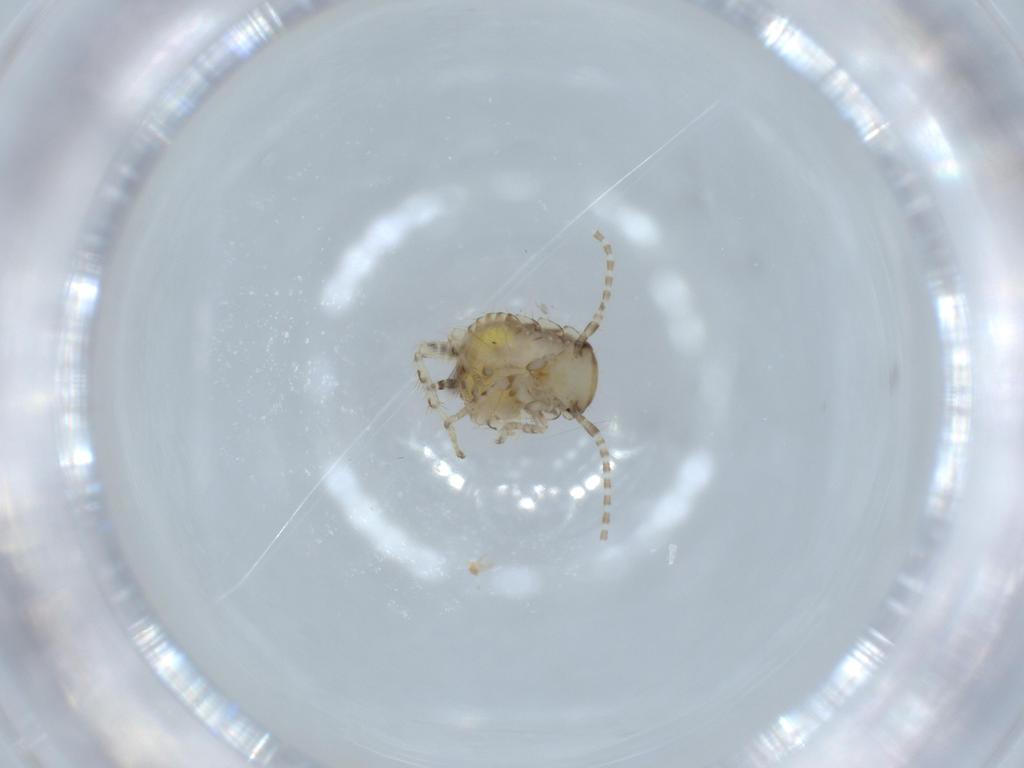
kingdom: Animalia
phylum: Arthropoda
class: Insecta
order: Blattodea
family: Ectobiidae
